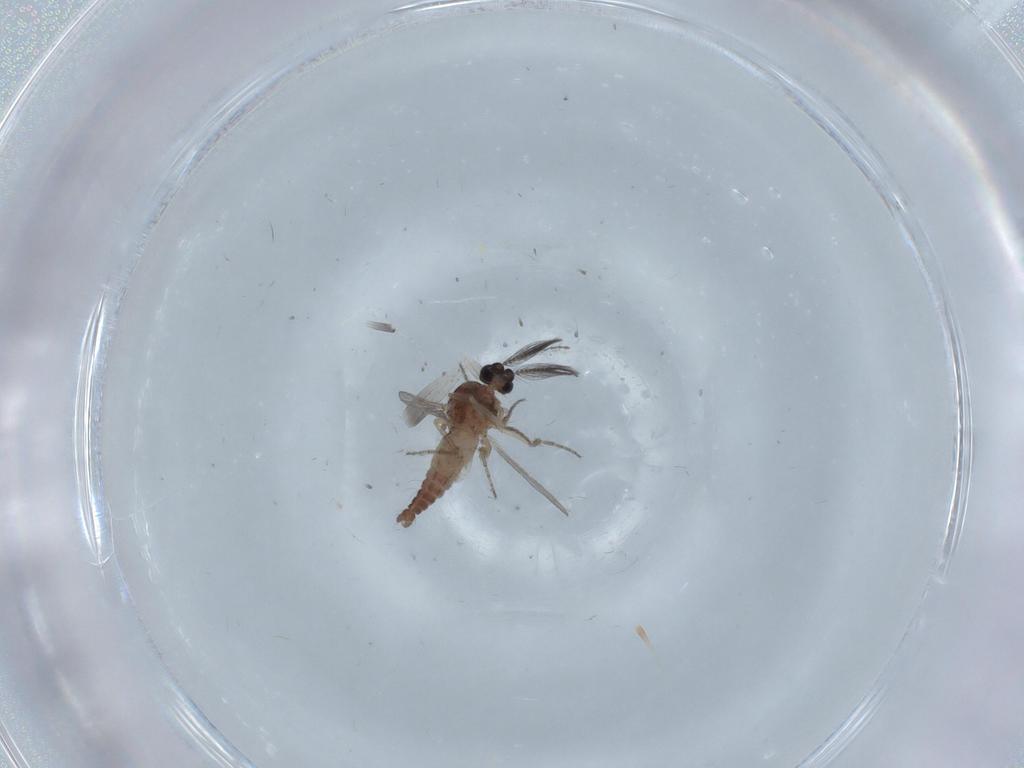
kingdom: Animalia
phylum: Arthropoda
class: Insecta
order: Diptera
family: Ceratopogonidae
